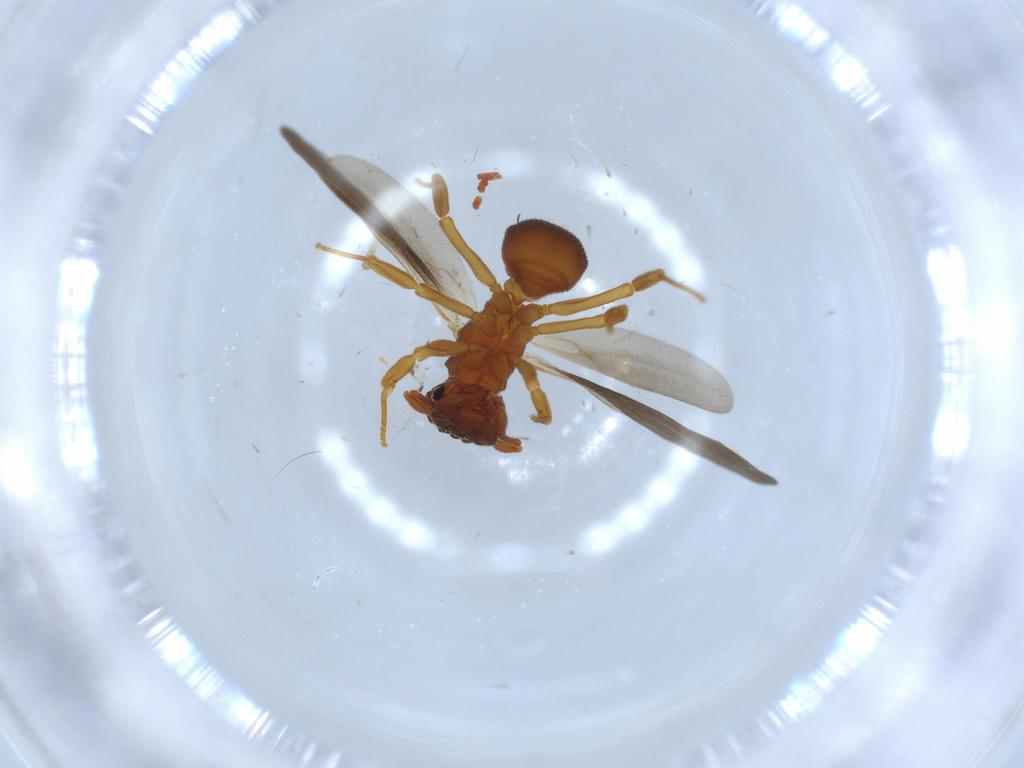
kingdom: Animalia
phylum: Arthropoda
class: Insecta
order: Hymenoptera
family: Formicidae
